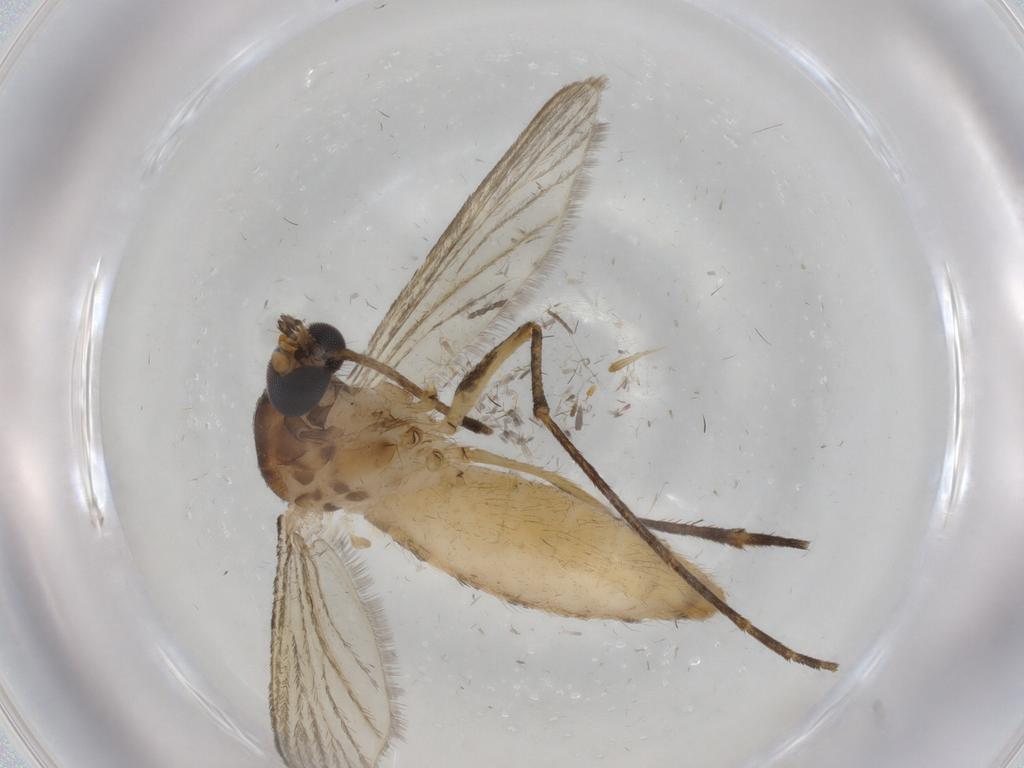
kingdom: Animalia
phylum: Arthropoda
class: Insecta
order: Diptera
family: Culicidae
